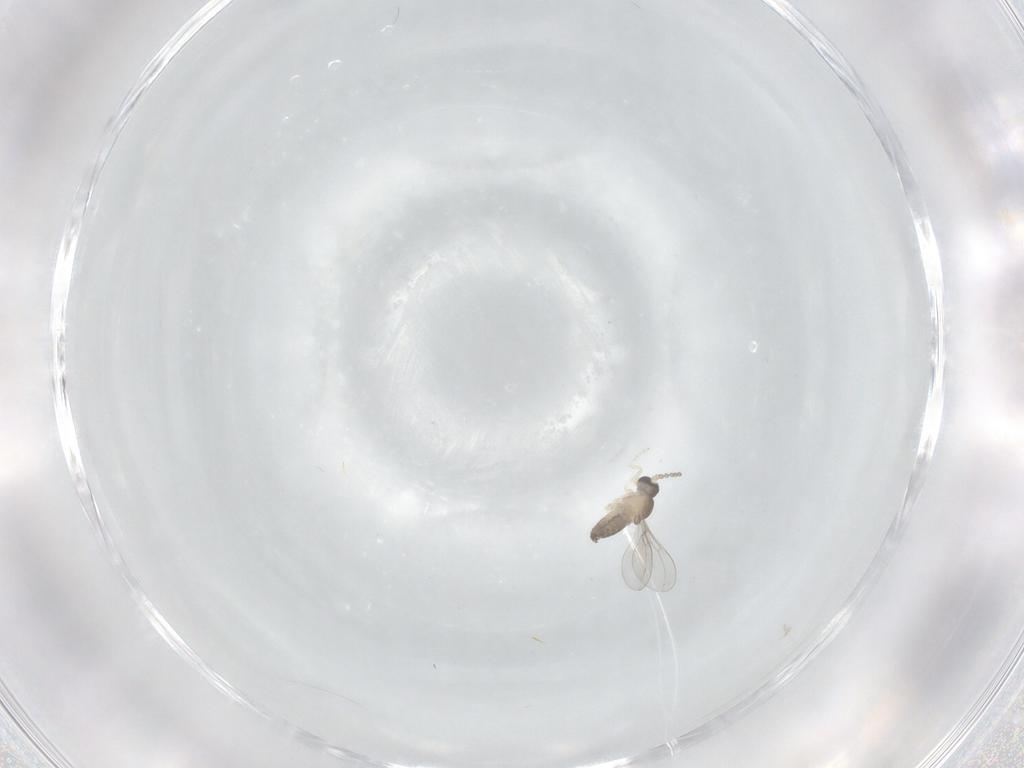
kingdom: Animalia
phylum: Arthropoda
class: Insecta
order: Diptera
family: Cecidomyiidae
